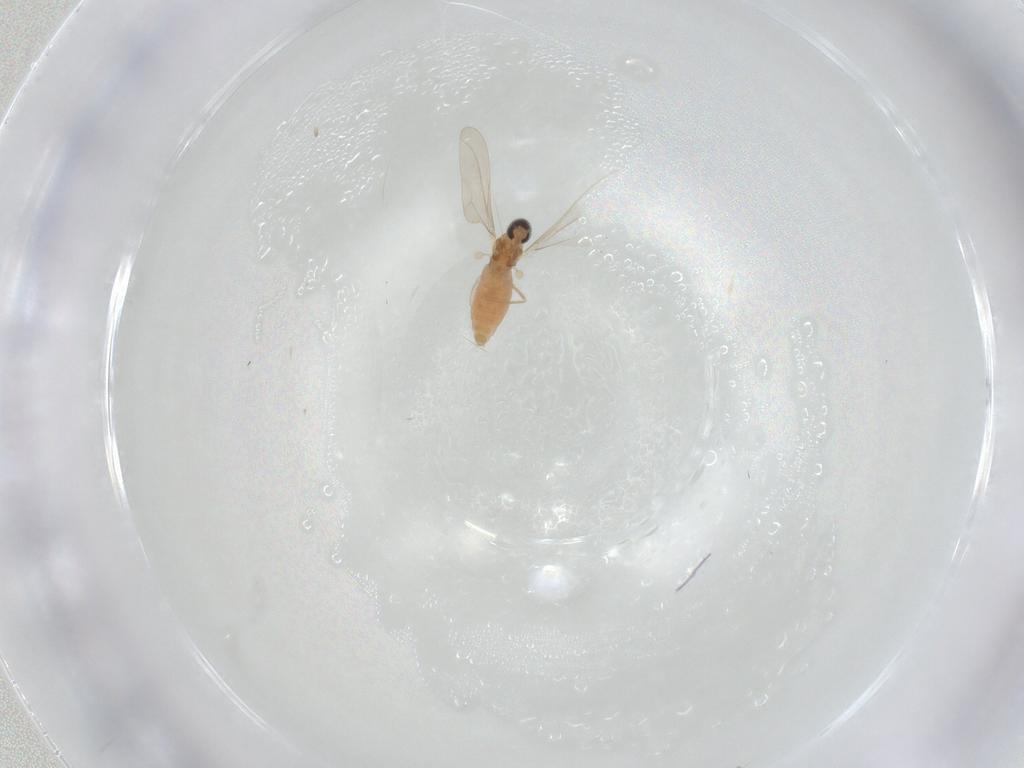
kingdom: Animalia
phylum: Arthropoda
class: Insecta
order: Diptera
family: Cecidomyiidae
